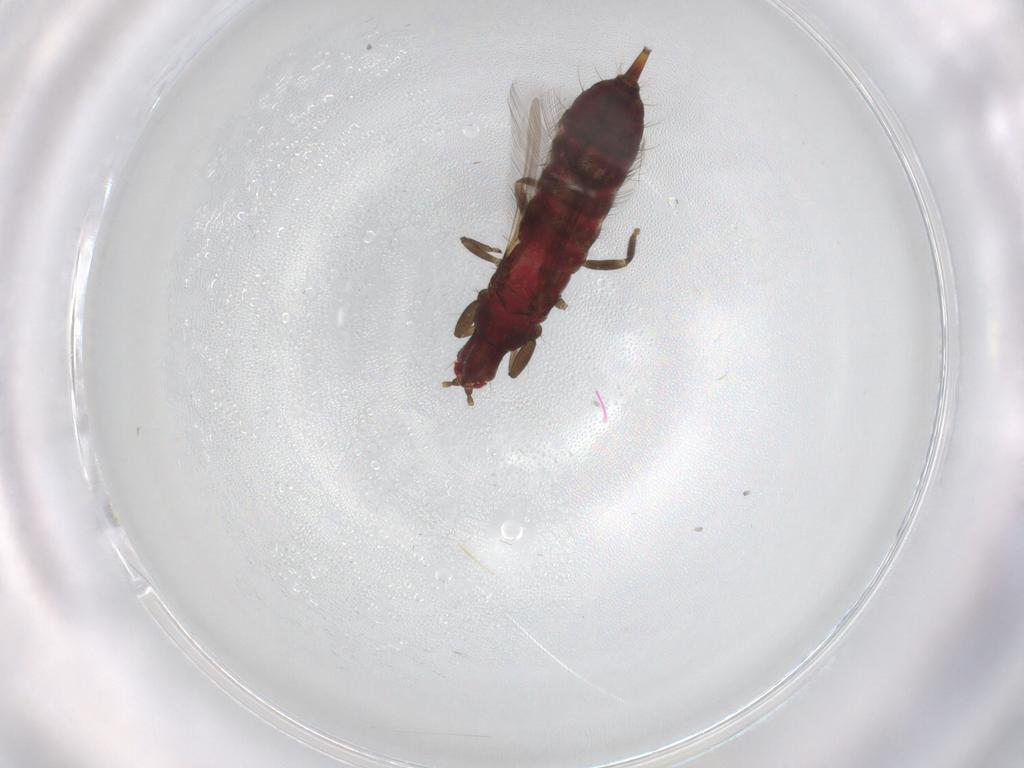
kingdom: Animalia
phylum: Arthropoda
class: Insecta
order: Thysanoptera
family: Phlaeothripidae
